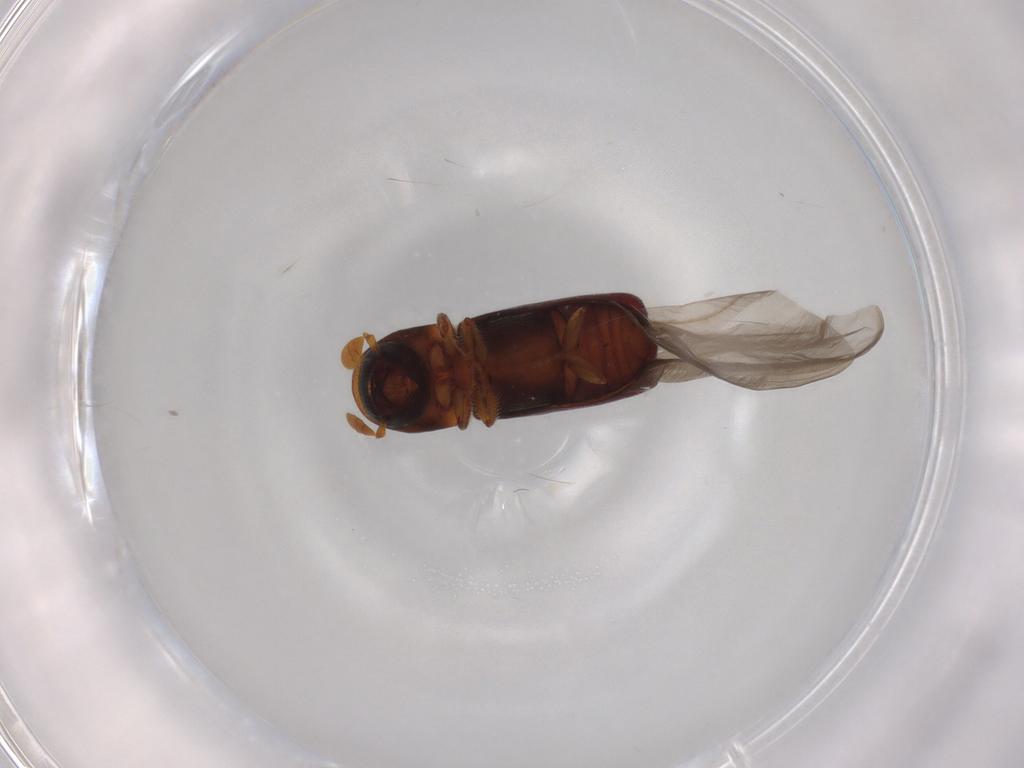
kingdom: Animalia
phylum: Arthropoda
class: Insecta
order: Coleoptera
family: Curculionidae
